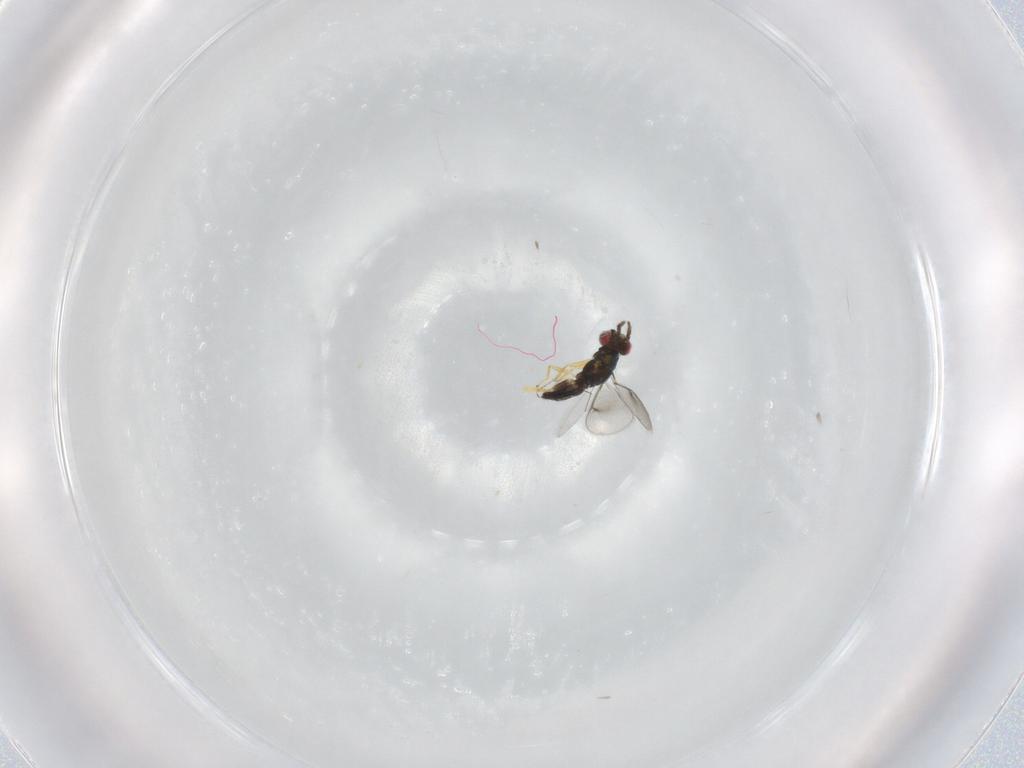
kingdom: Animalia
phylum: Arthropoda
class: Insecta
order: Hymenoptera
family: Eulophidae
